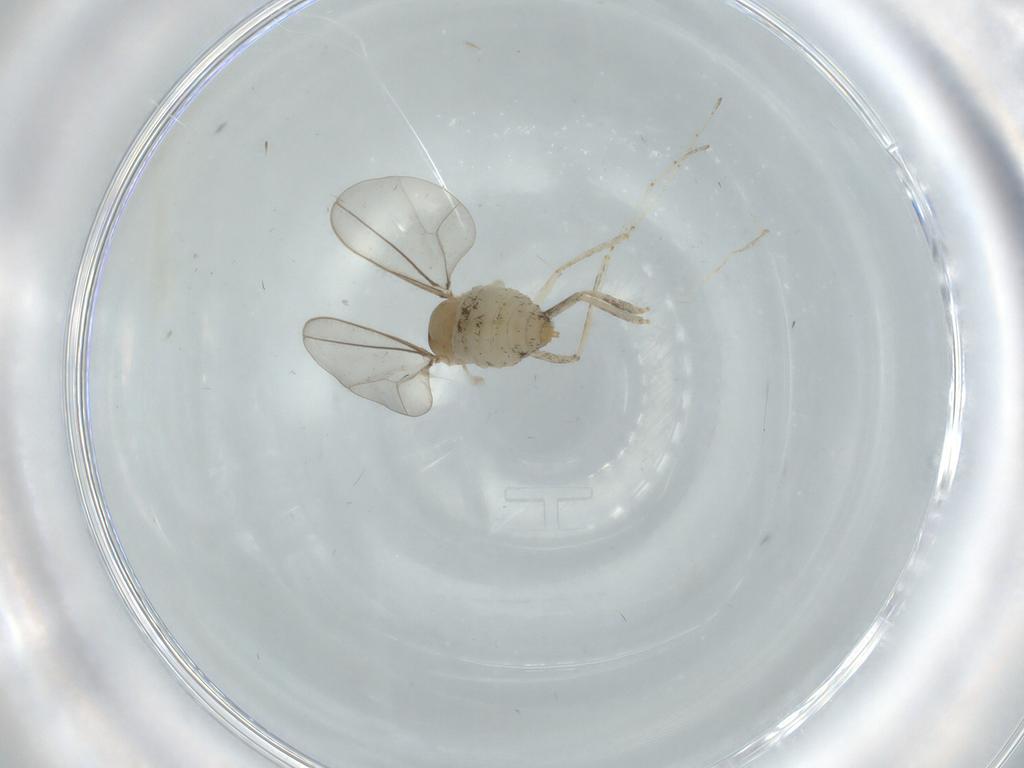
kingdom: Animalia
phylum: Arthropoda
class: Insecta
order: Diptera
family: Cecidomyiidae
